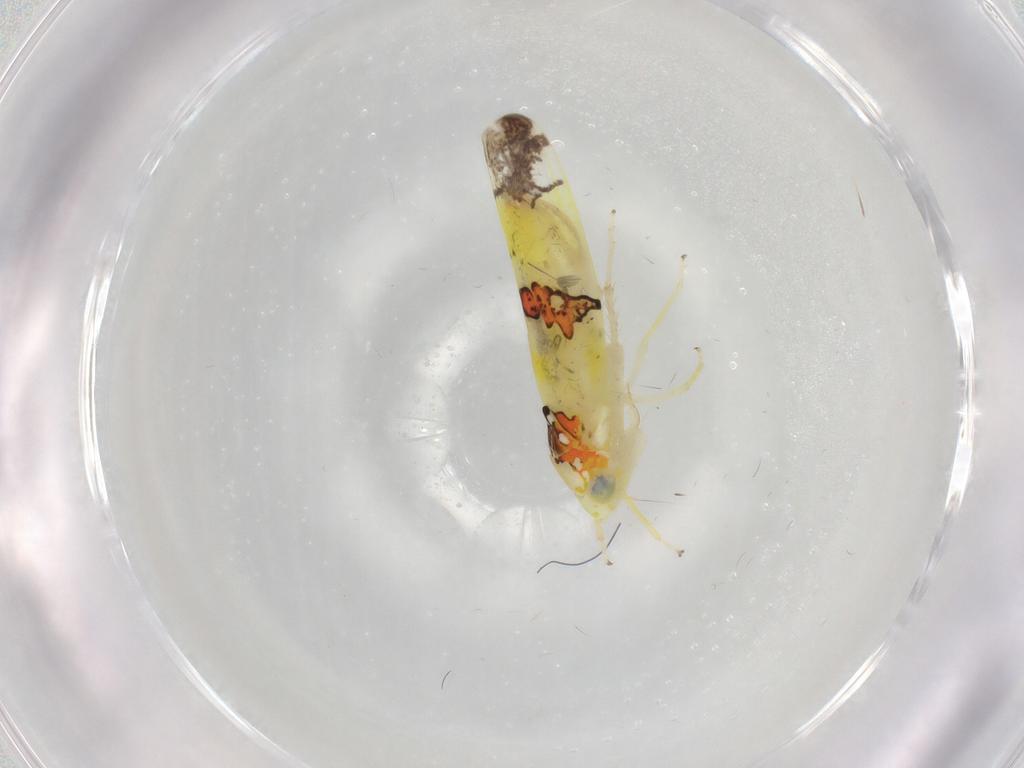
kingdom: Animalia
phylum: Arthropoda
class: Insecta
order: Hemiptera
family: Cicadellidae
